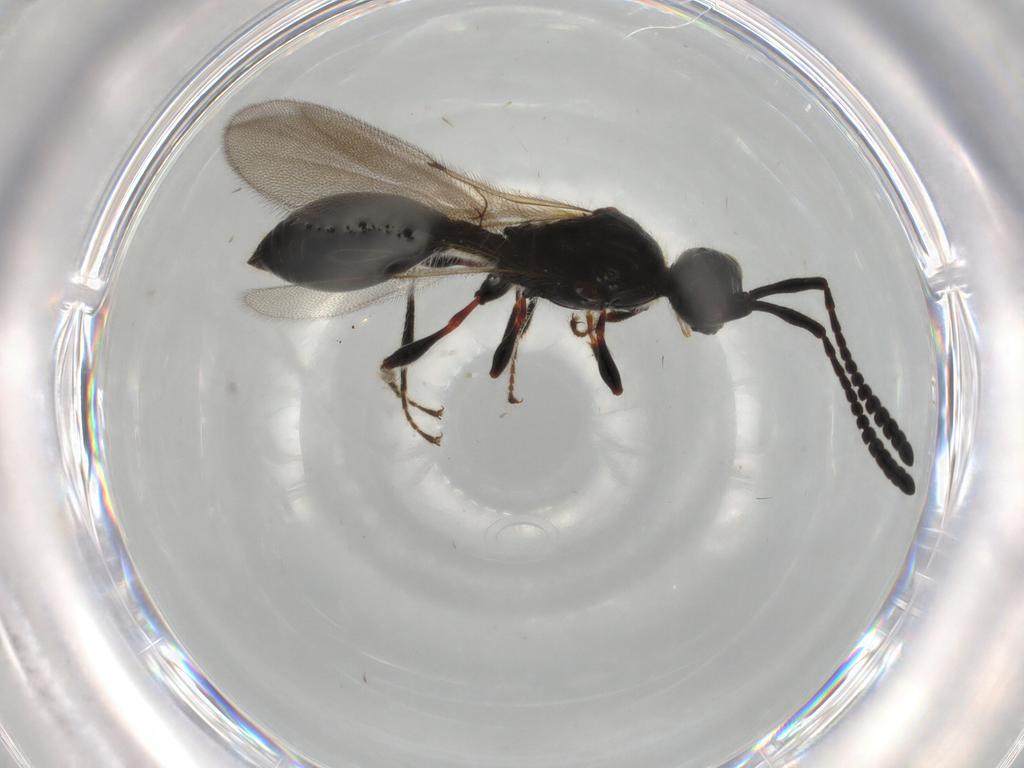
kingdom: Animalia
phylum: Arthropoda
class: Insecta
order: Hymenoptera
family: Diapriidae
